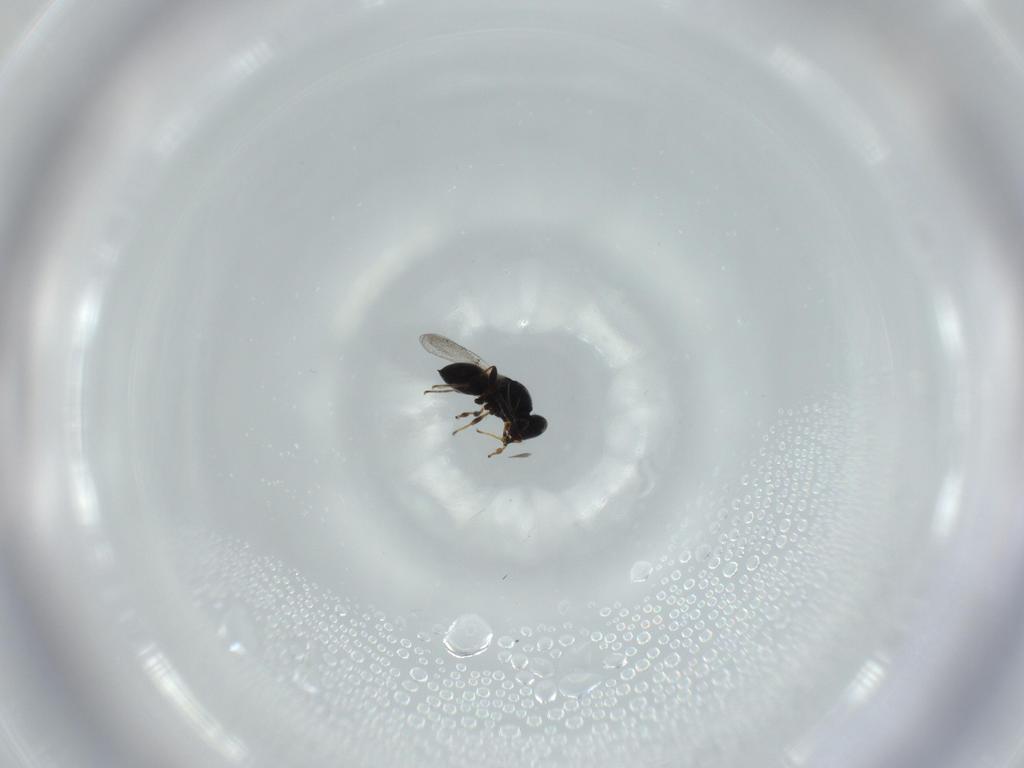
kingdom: Animalia
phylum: Arthropoda
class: Insecta
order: Hymenoptera
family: Platygastridae
